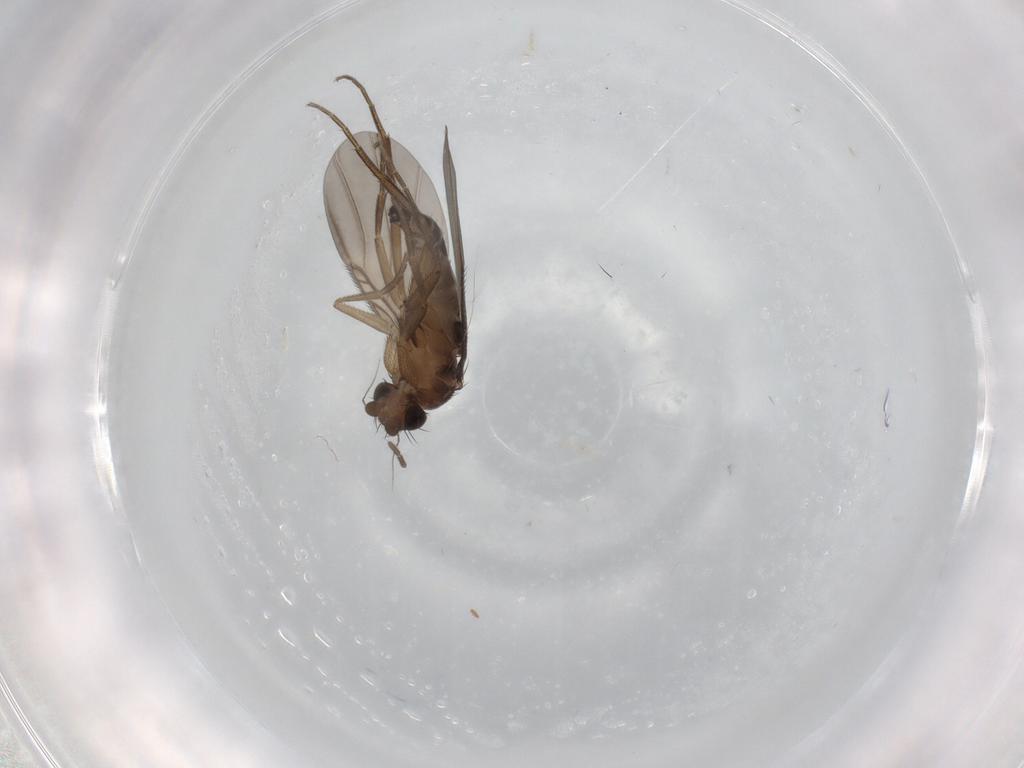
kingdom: Animalia
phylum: Arthropoda
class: Insecta
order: Diptera
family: Phoridae
